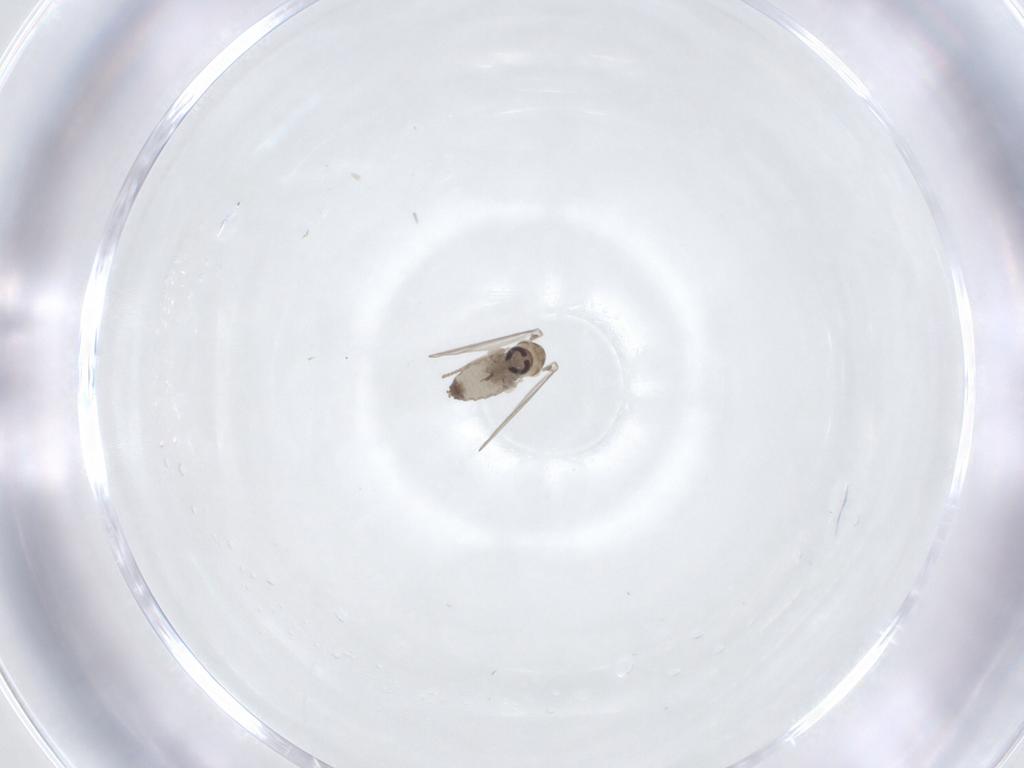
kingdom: Animalia
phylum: Arthropoda
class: Insecta
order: Diptera
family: Psychodidae
